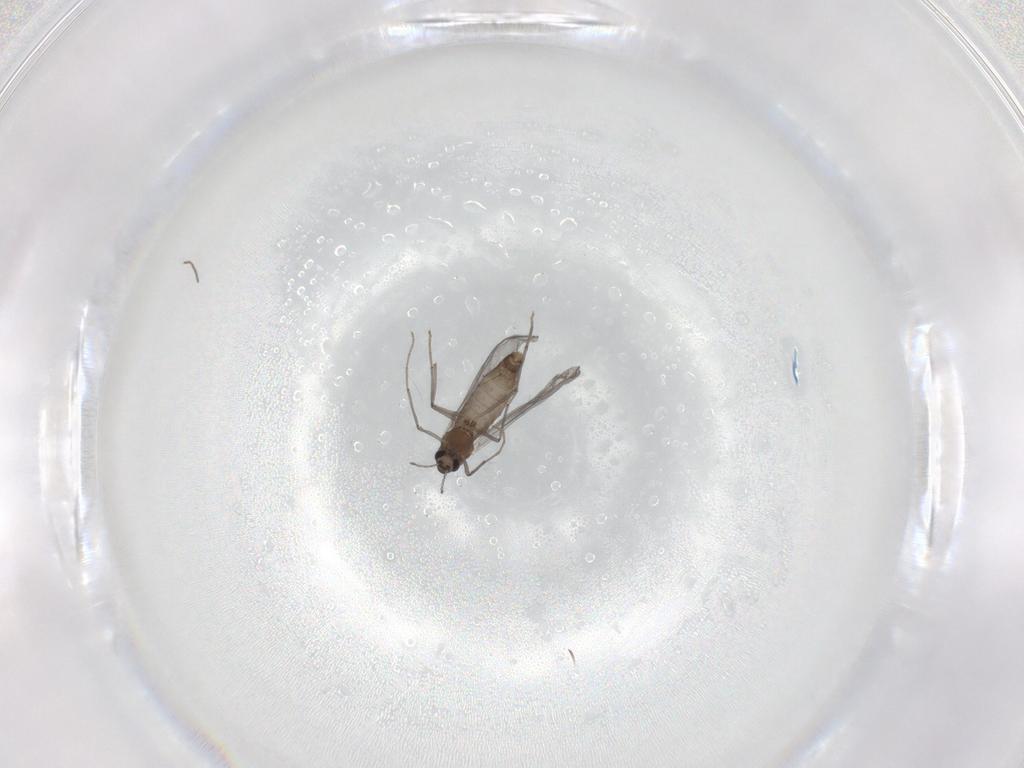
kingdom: Animalia
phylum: Arthropoda
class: Insecta
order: Diptera
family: Chironomidae
